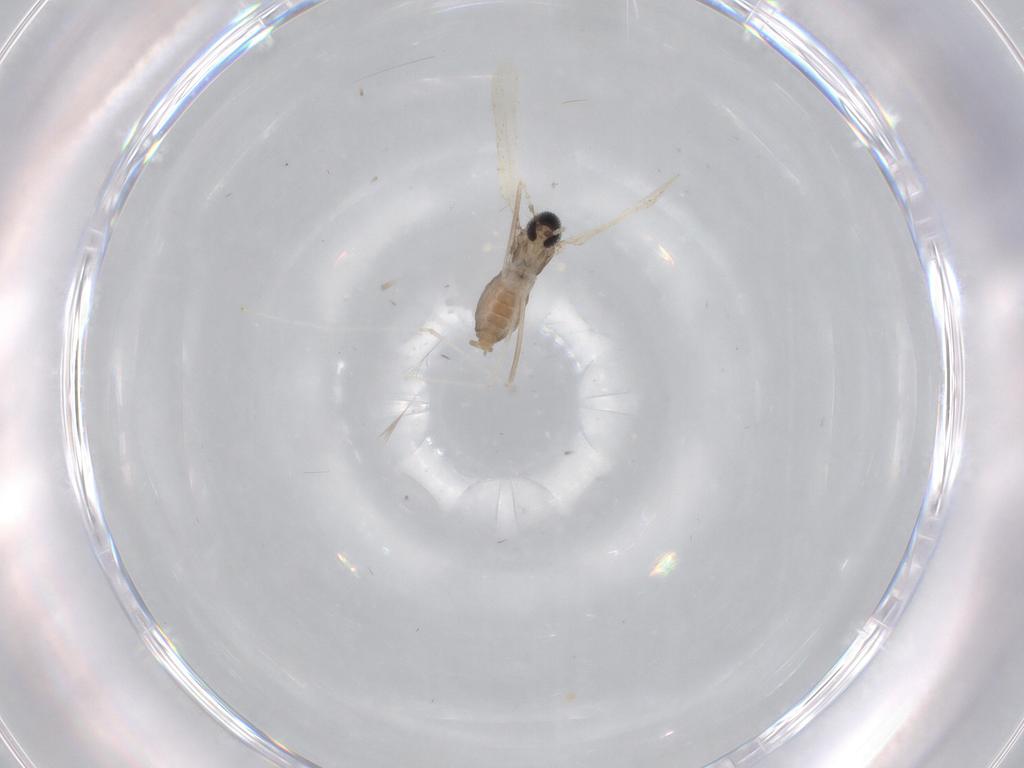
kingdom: Animalia
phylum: Arthropoda
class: Insecta
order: Diptera
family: Cecidomyiidae
